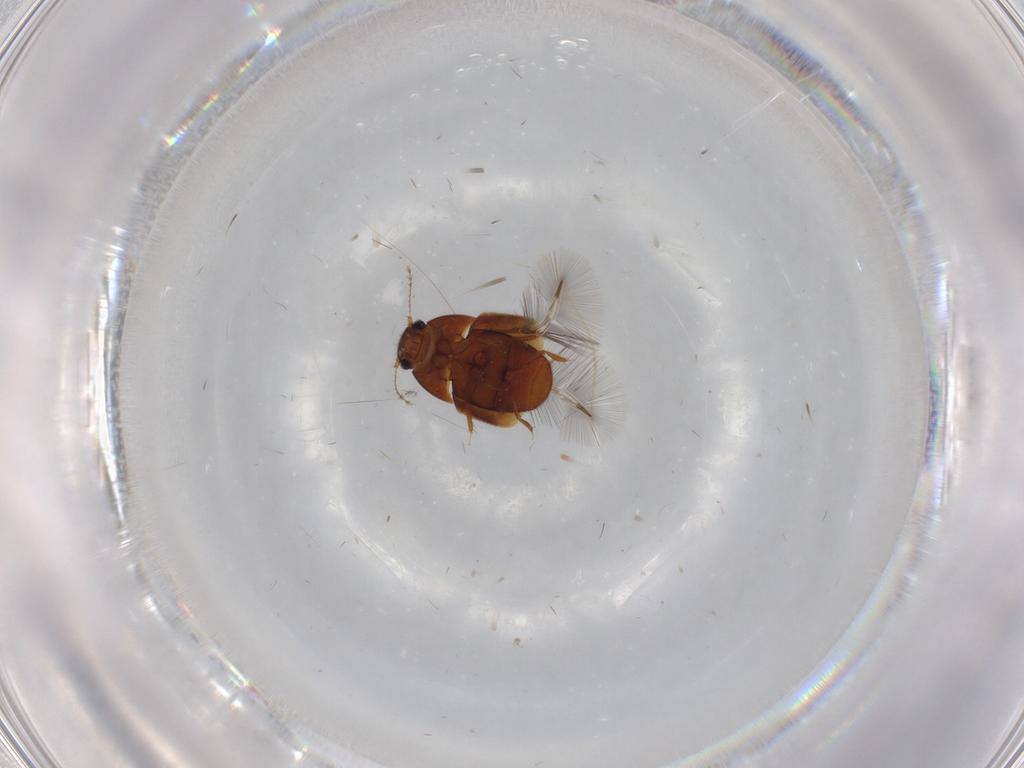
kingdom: Animalia
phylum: Arthropoda
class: Insecta
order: Coleoptera
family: Ptiliidae
